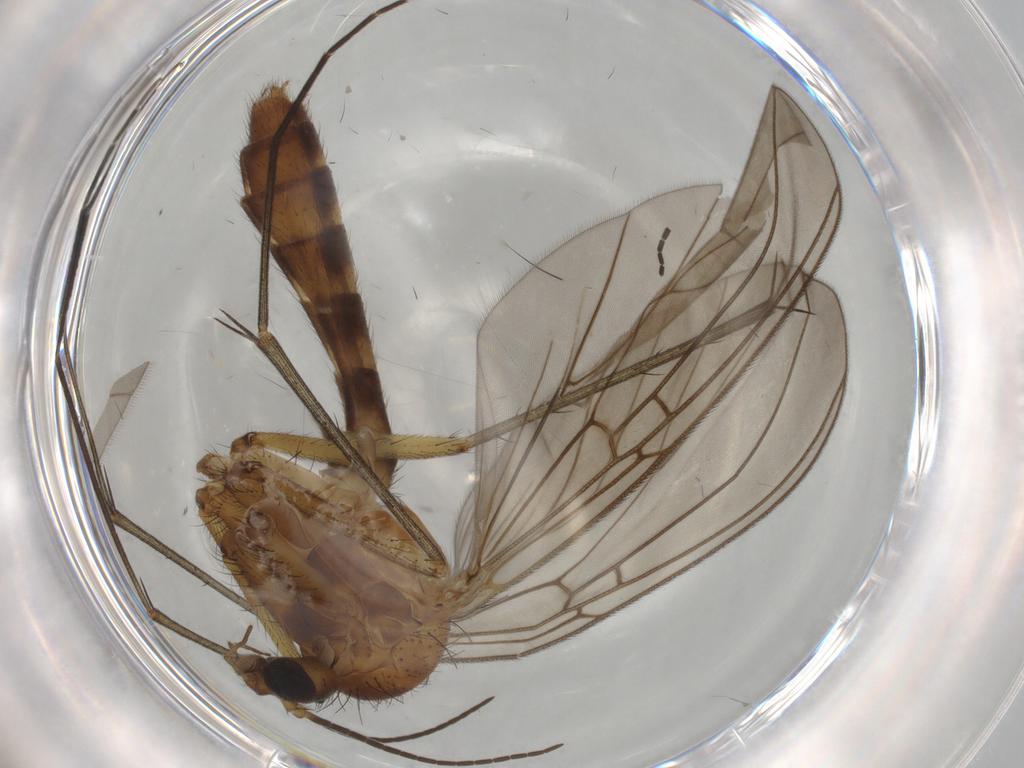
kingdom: Animalia
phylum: Arthropoda
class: Insecta
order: Diptera
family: Mycetophilidae
